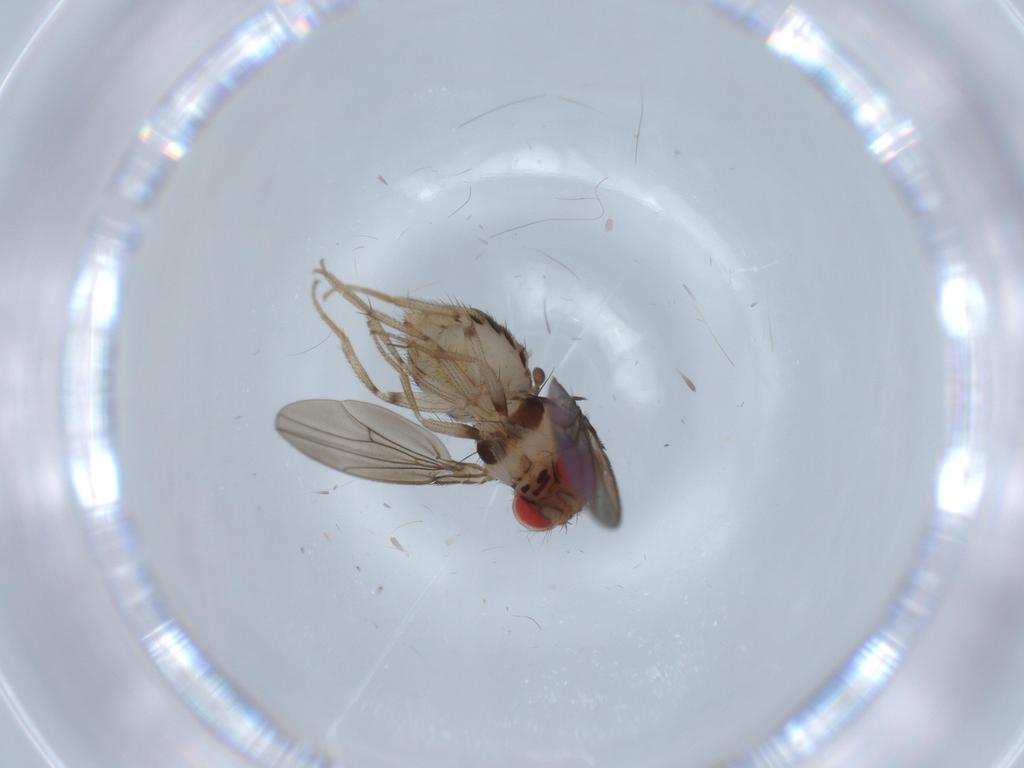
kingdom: Animalia
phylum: Arthropoda
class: Insecta
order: Diptera
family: Drosophilidae
